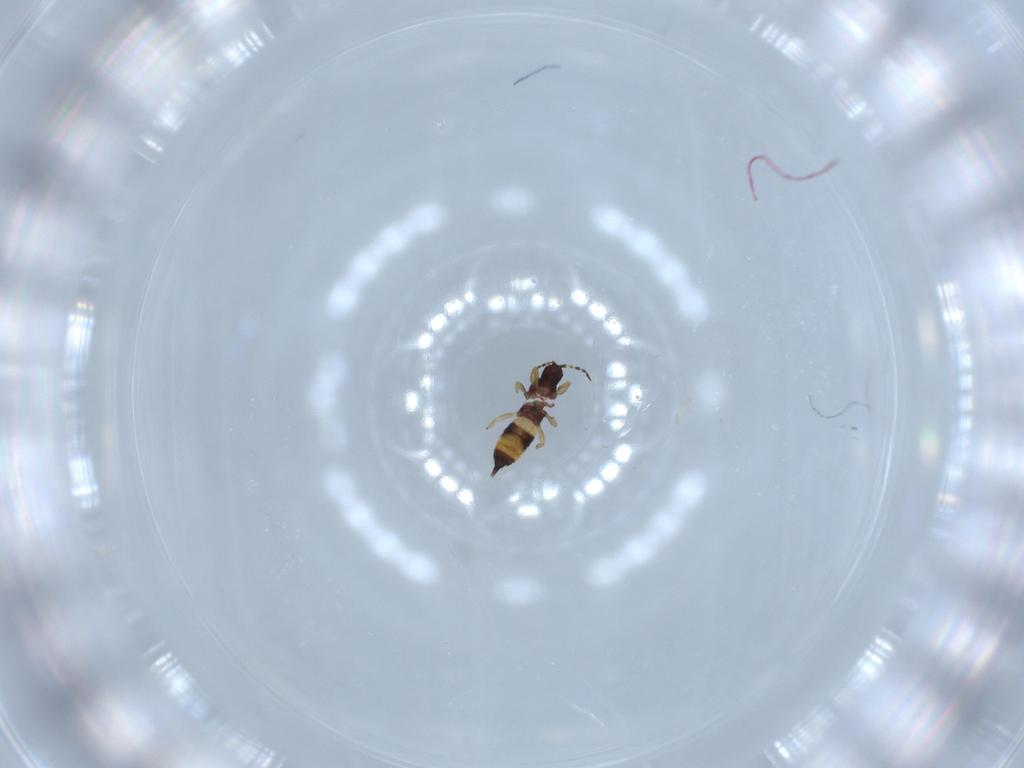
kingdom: Animalia
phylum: Arthropoda
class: Insecta
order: Thysanoptera
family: Phlaeothripidae
